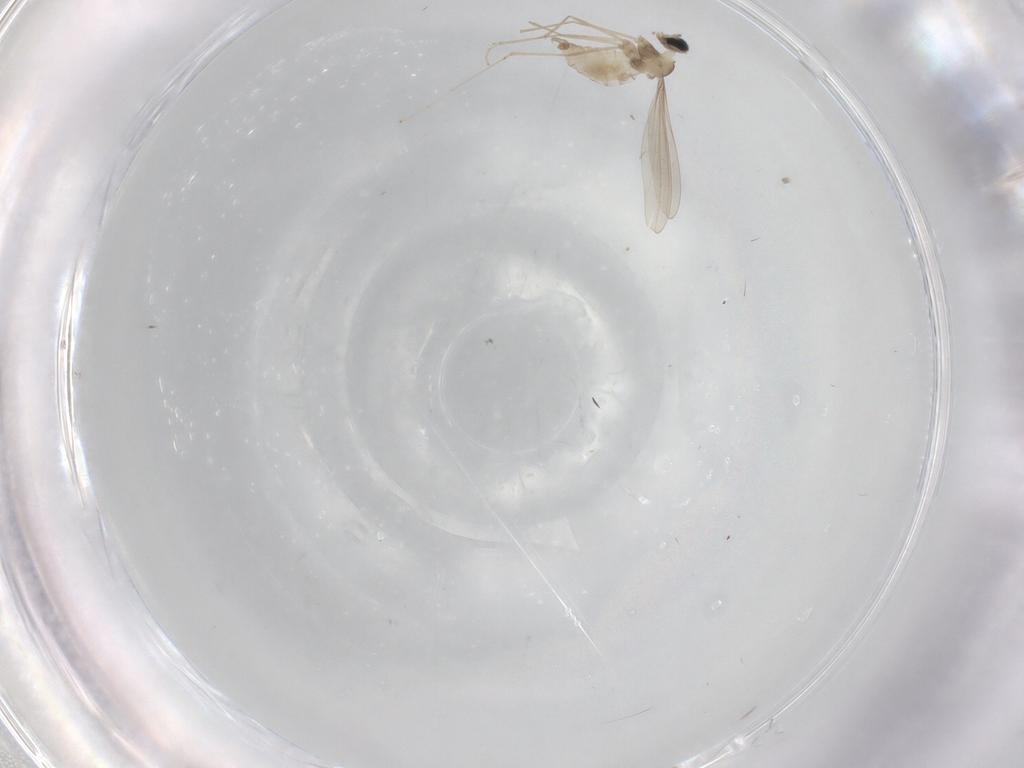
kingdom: Animalia
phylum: Arthropoda
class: Insecta
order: Diptera
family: Cecidomyiidae
